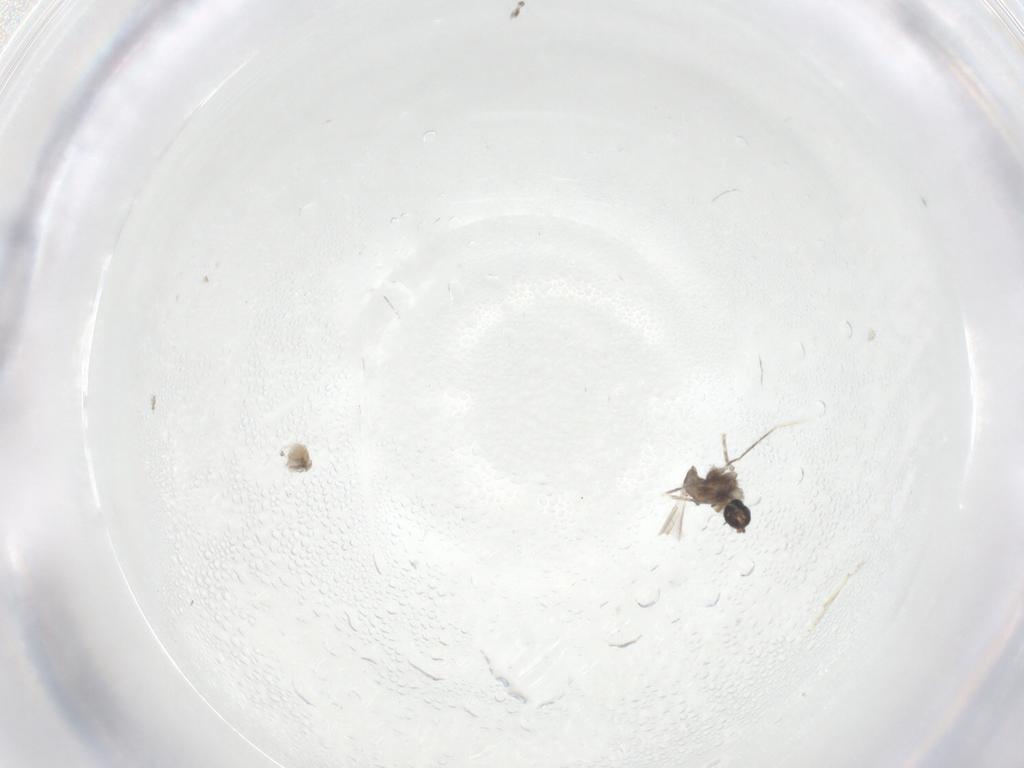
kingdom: Animalia
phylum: Arthropoda
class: Insecta
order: Diptera
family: Cecidomyiidae
